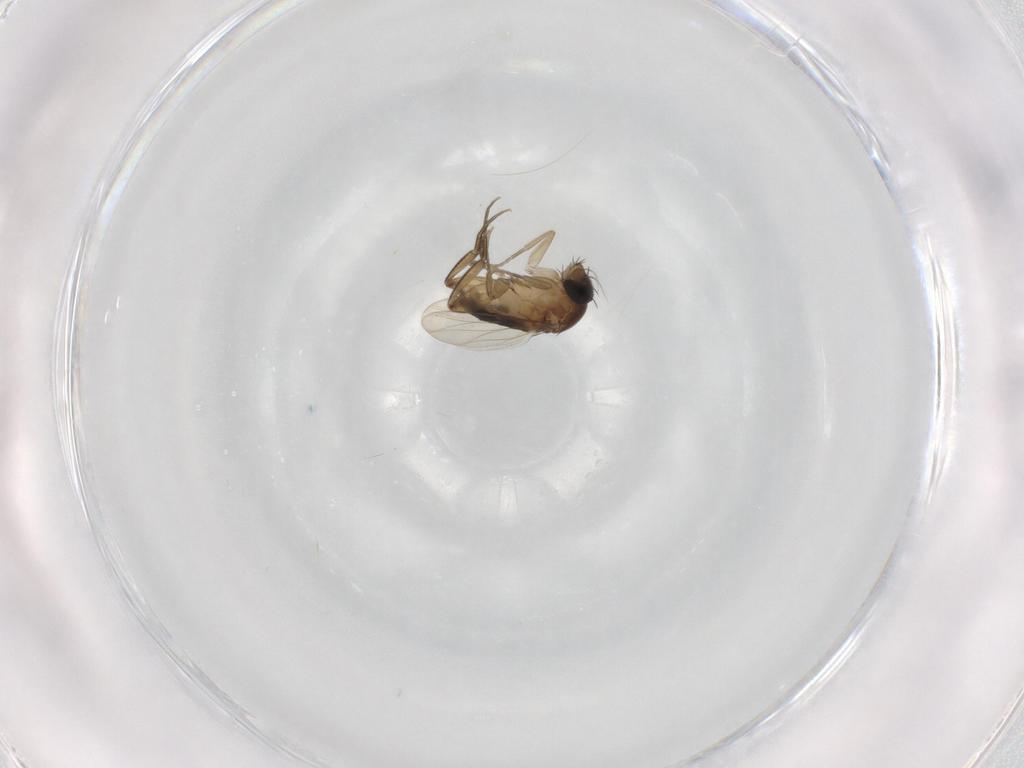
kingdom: Animalia
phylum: Arthropoda
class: Insecta
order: Diptera
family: Phoridae
